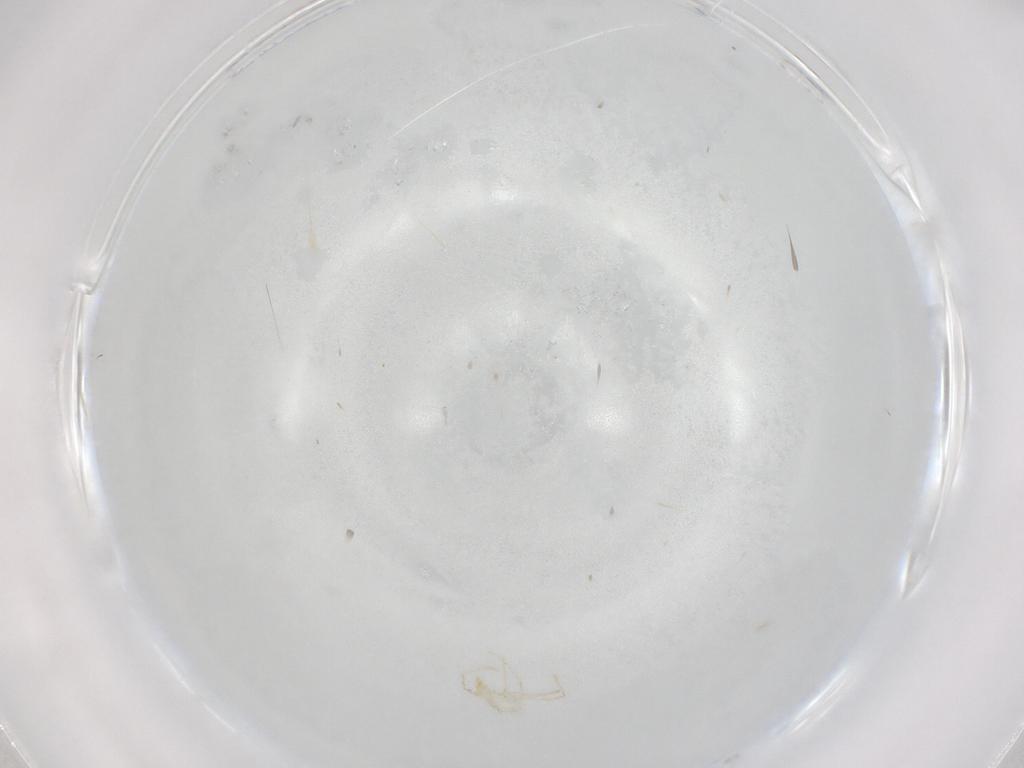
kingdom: Animalia
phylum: Arthropoda
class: Arachnida
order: Trombidiformes
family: Erythraeidae
